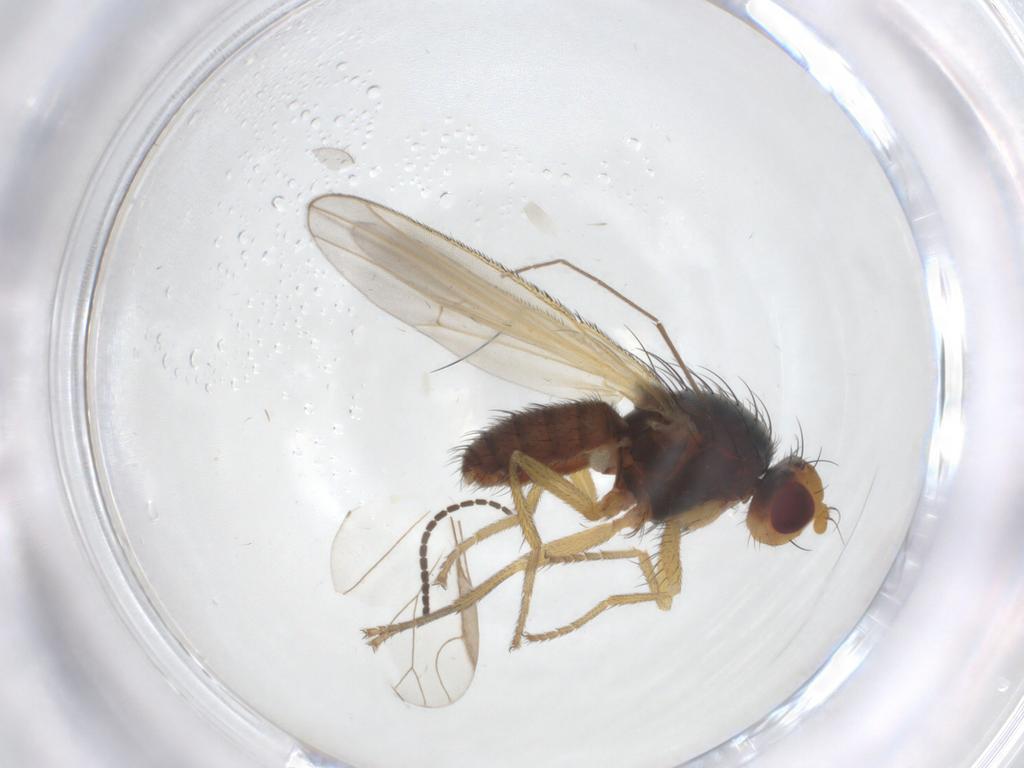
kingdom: Animalia
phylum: Arthropoda
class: Insecta
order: Diptera
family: Heleomyzidae
